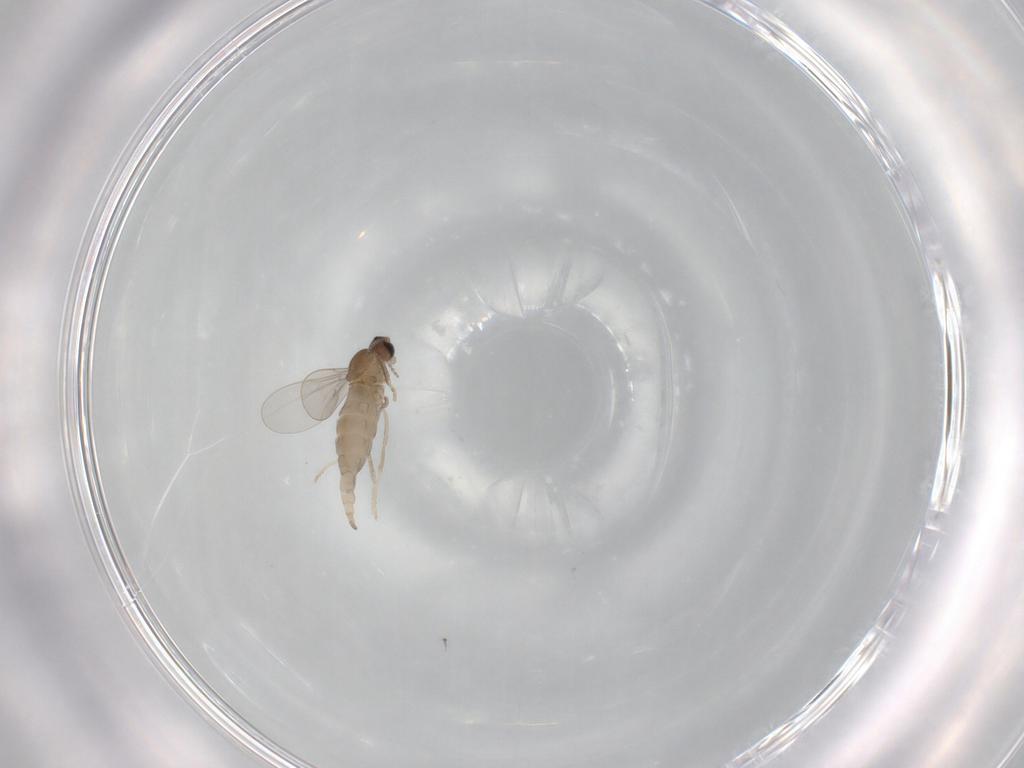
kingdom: Animalia
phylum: Arthropoda
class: Insecta
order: Diptera
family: Cecidomyiidae
